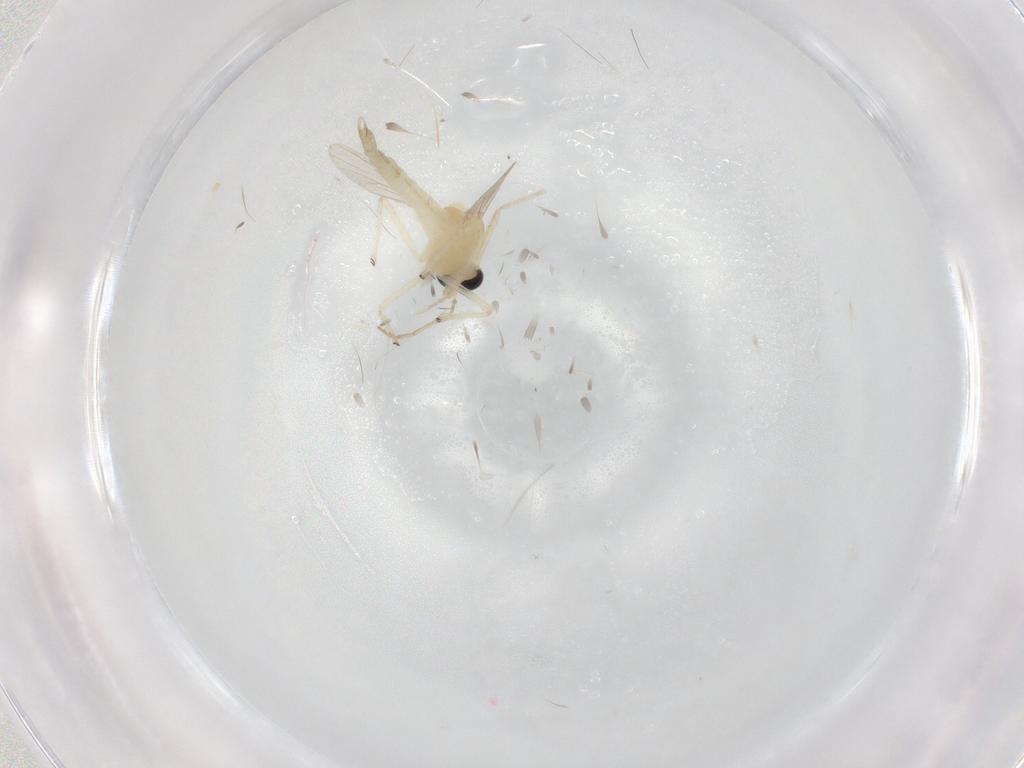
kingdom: Animalia
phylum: Arthropoda
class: Insecta
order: Diptera
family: Chironomidae
